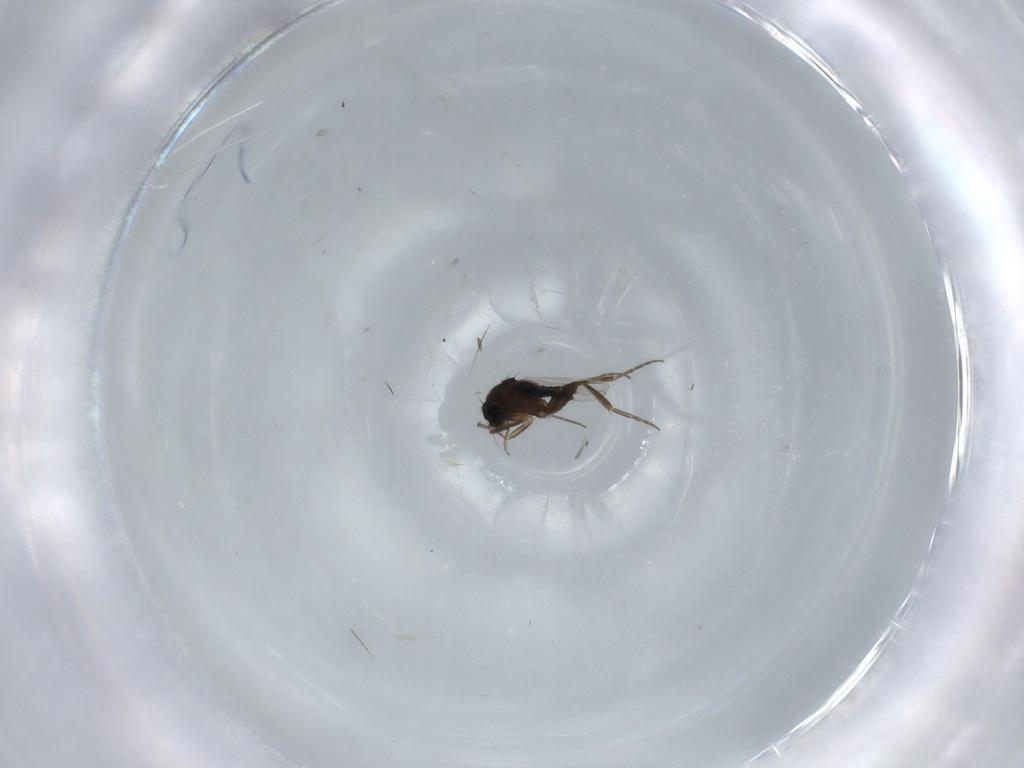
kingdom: Animalia
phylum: Arthropoda
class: Insecta
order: Diptera
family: Phoridae
